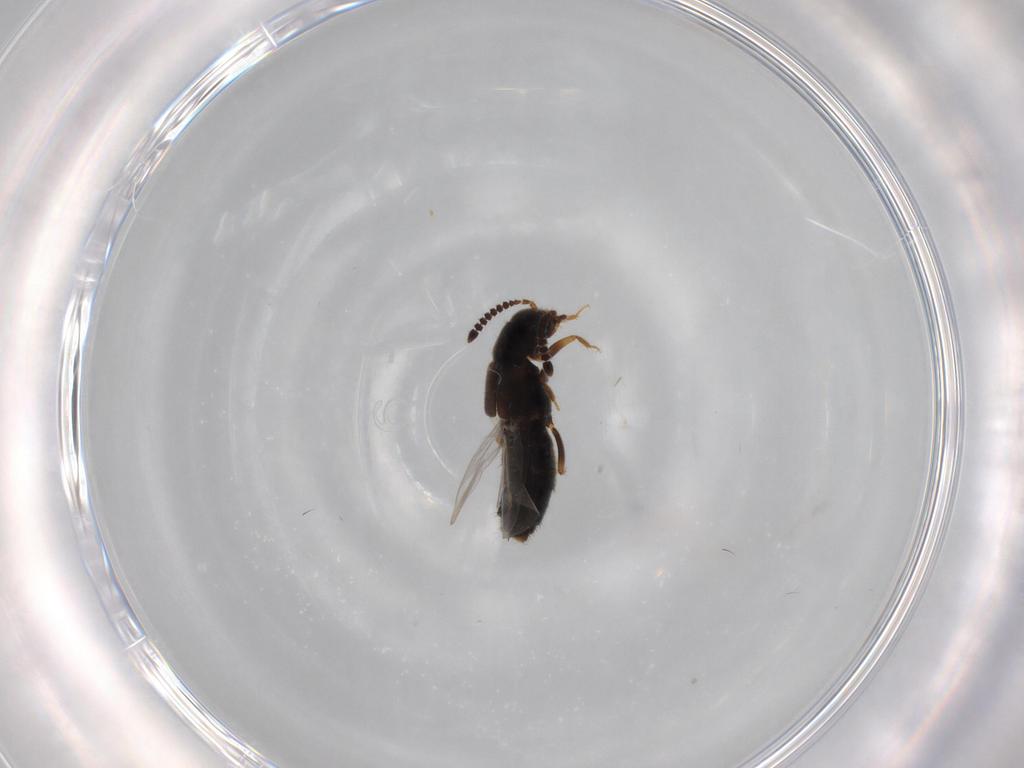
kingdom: Animalia
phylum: Arthropoda
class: Insecta
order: Coleoptera
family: Staphylinidae
